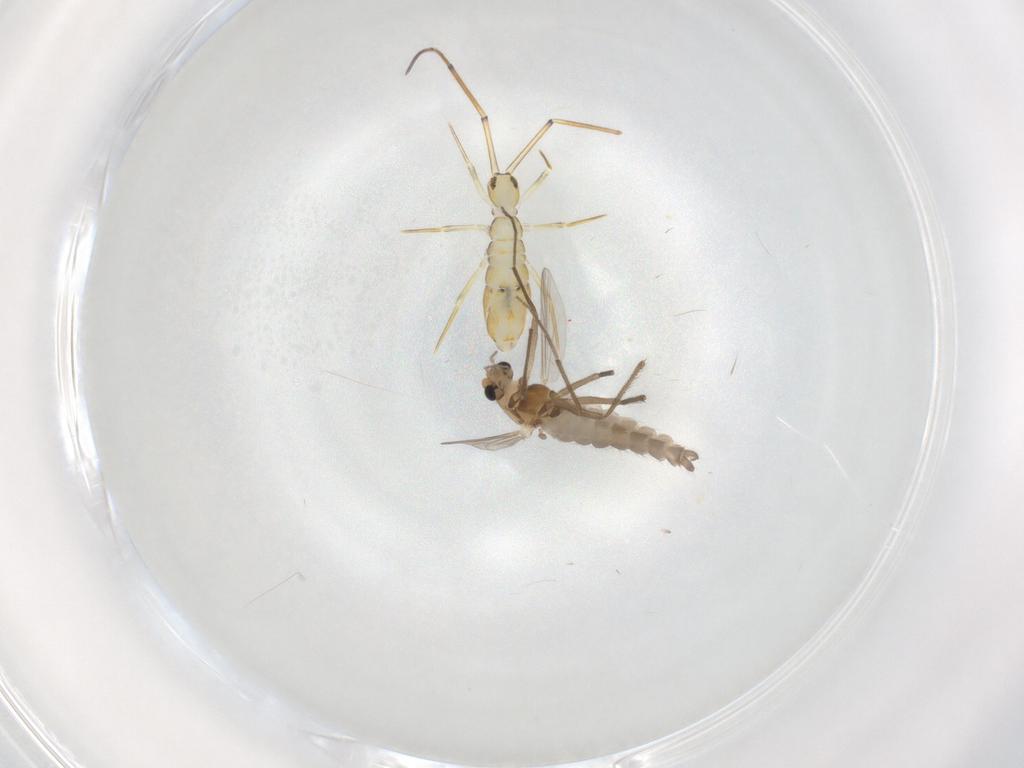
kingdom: Animalia
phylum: Arthropoda
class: Insecta
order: Diptera
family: Chironomidae
